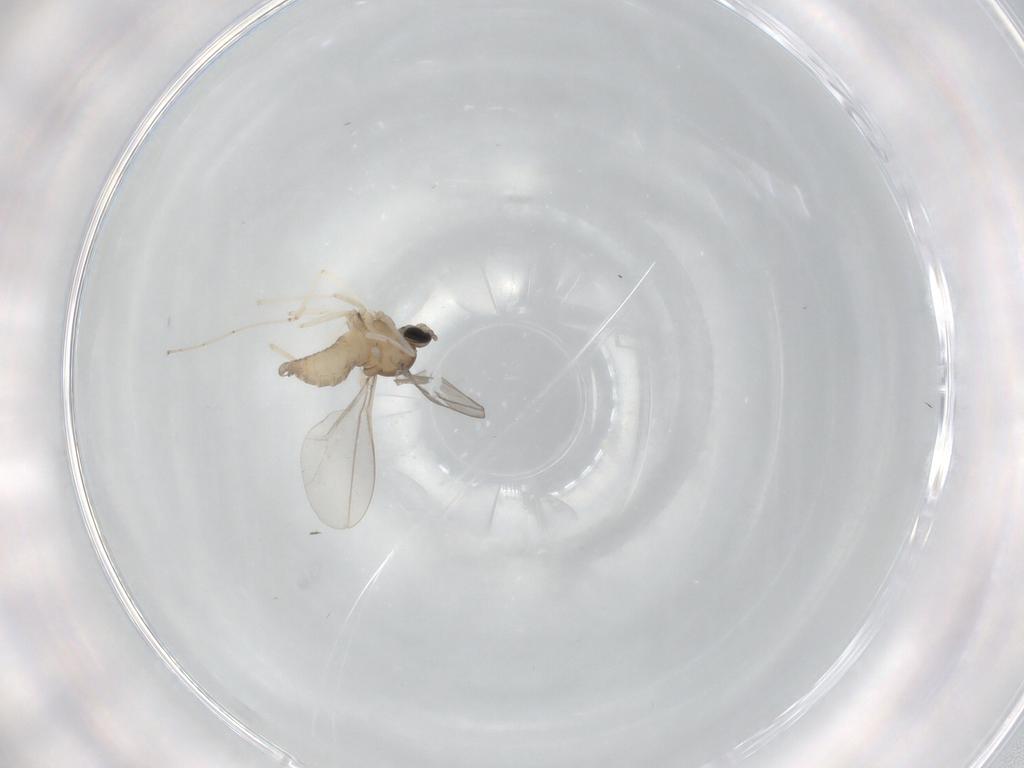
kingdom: Animalia
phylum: Arthropoda
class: Insecta
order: Diptera
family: Cecidomyiidae
